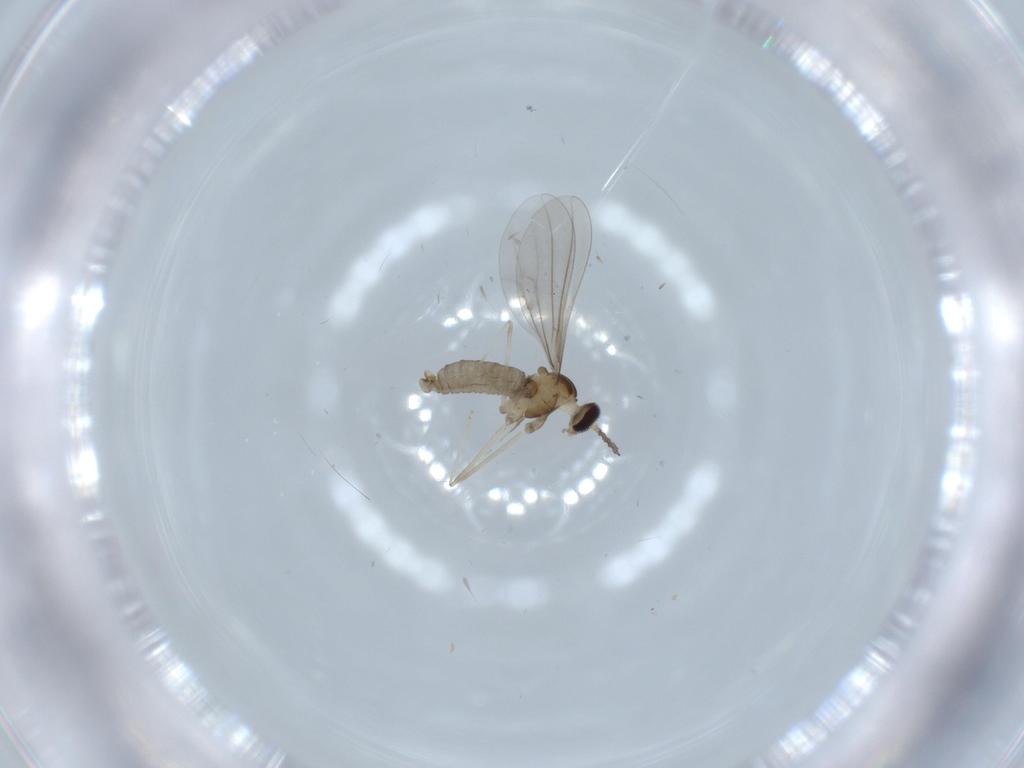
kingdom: Animalia
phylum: Arthropoda
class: Insecta
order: Diptera
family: Cecidomyiidae
